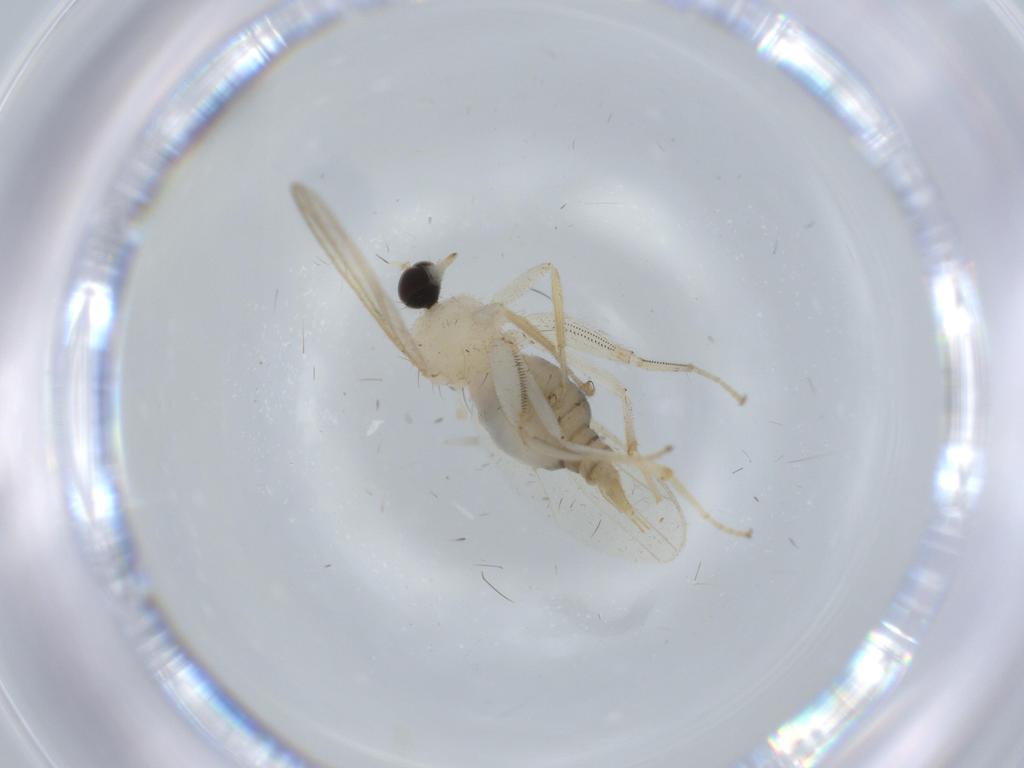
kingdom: Animalia
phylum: Arthropoda
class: Insecta
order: Diptera
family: Hybotidae
